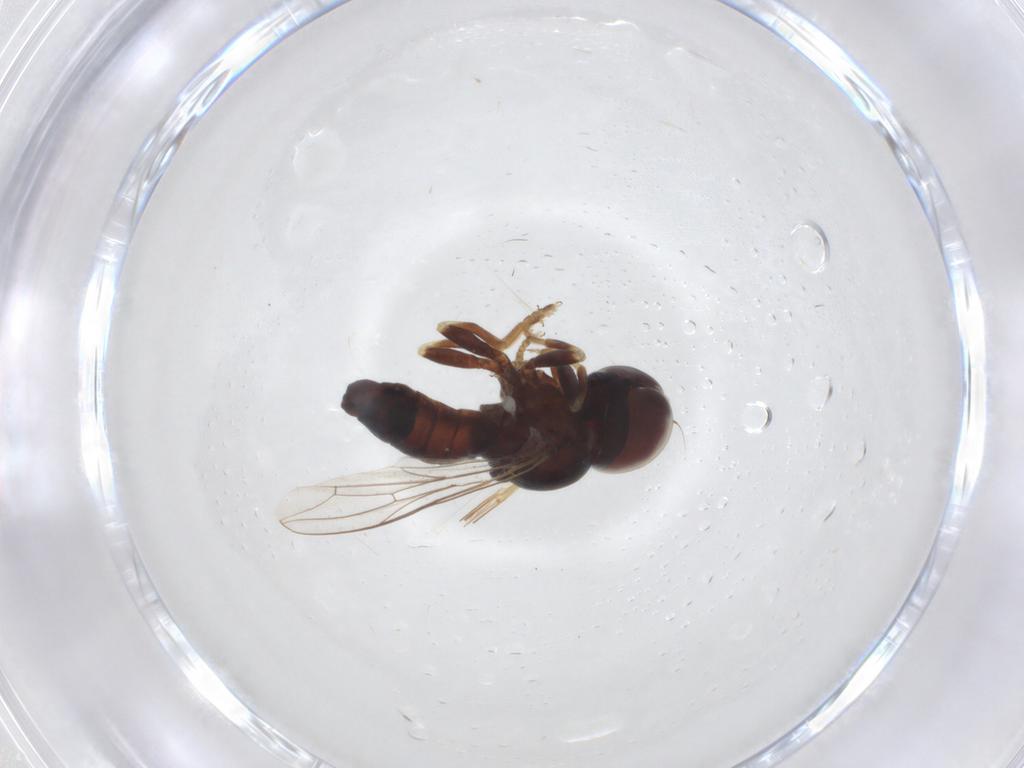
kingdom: Animalia
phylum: Arthropoda
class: Insecta
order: Diptera
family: Pipunculidae
